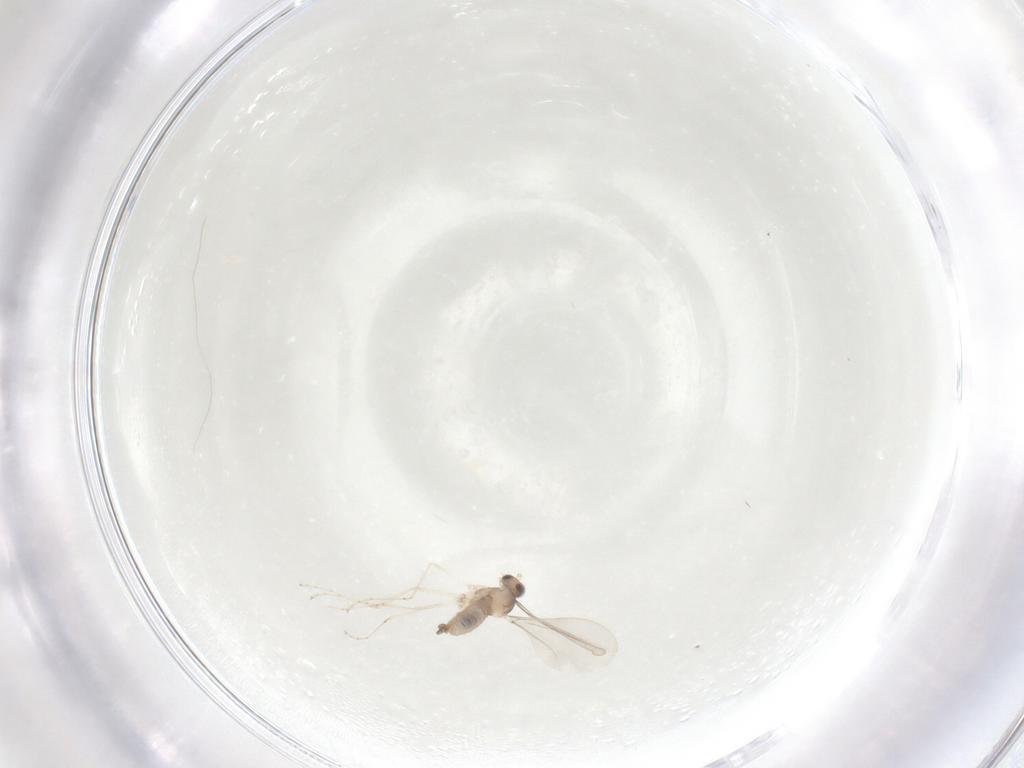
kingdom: Animalia
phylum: Arthropoda
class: Insecta
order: Diptera
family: Cecidomyiidae
